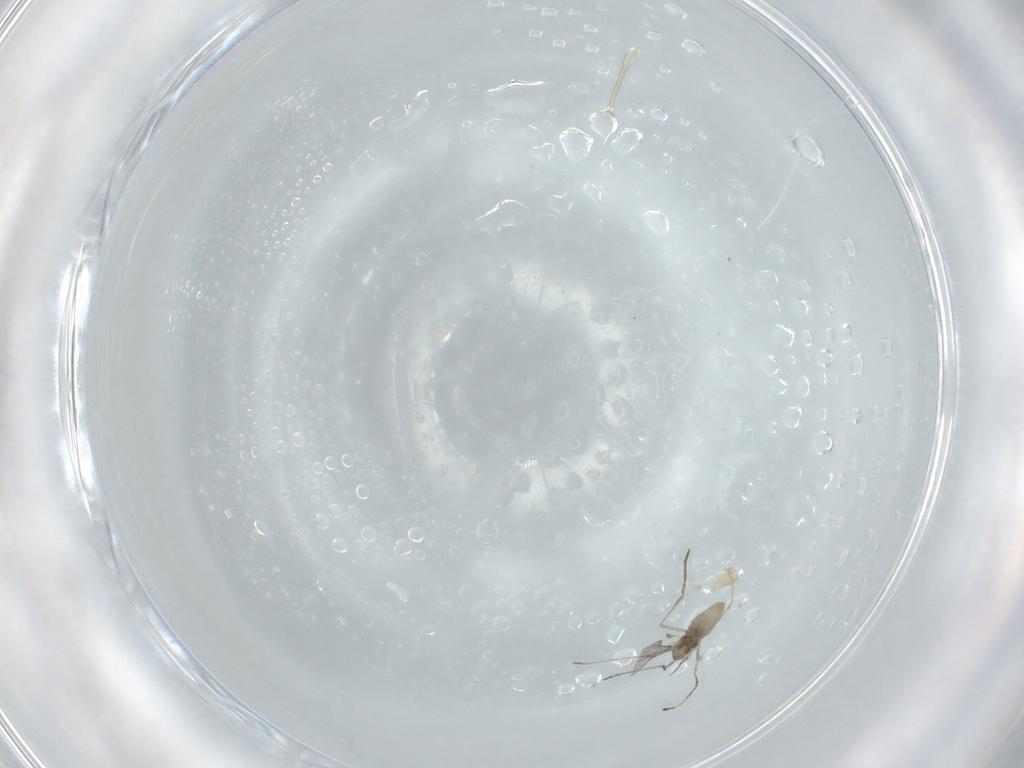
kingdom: Animalia
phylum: Arthropoda
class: Insecta
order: Diptera
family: Cecidomyiidae
